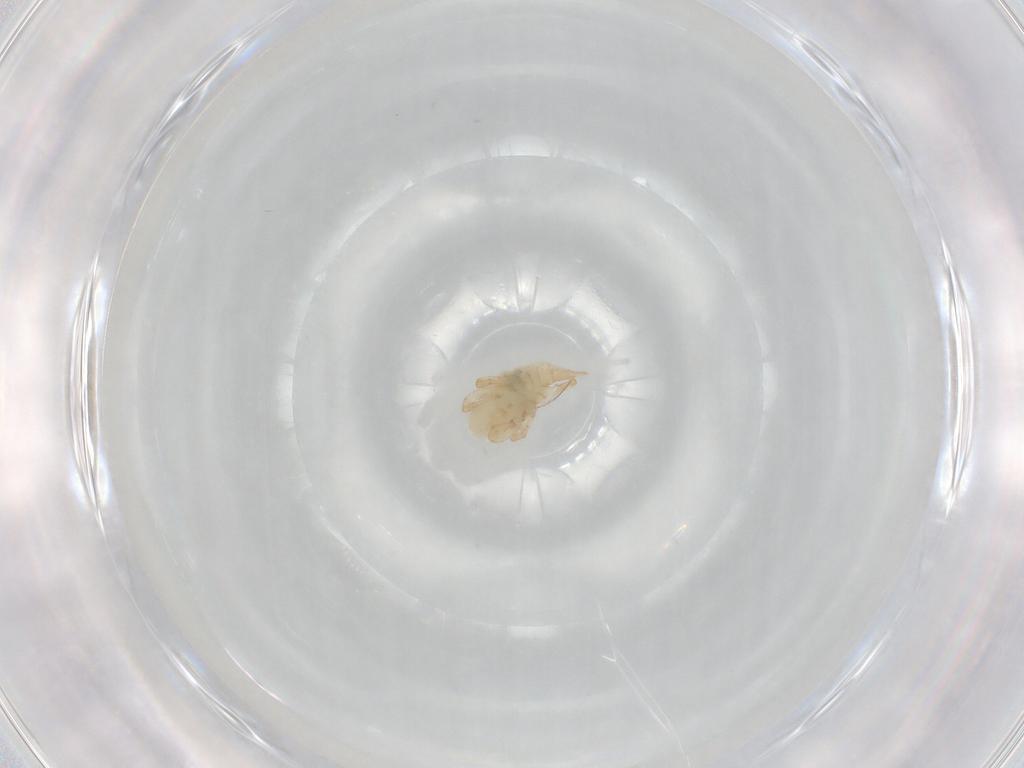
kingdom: Animalia
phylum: Arthropoda
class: Arachnida
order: Trombidiformes
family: Bdellidae
